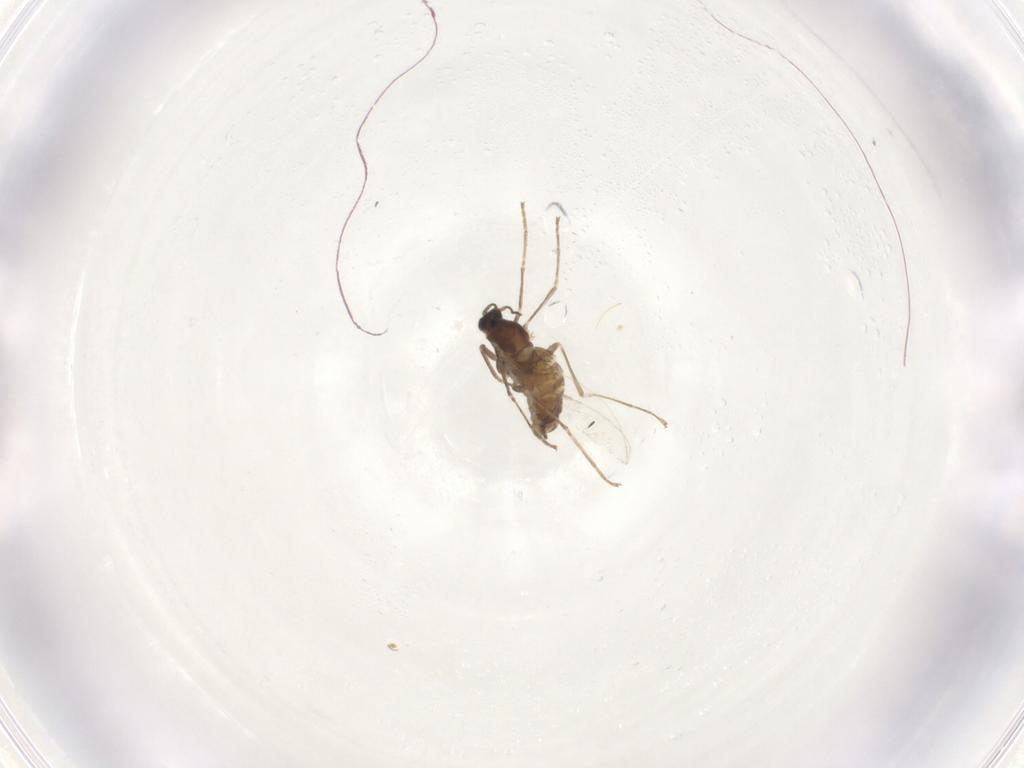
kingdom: Animalia
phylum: Arthropoda
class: Insecta
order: Diptera
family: Cecidomyiidae
